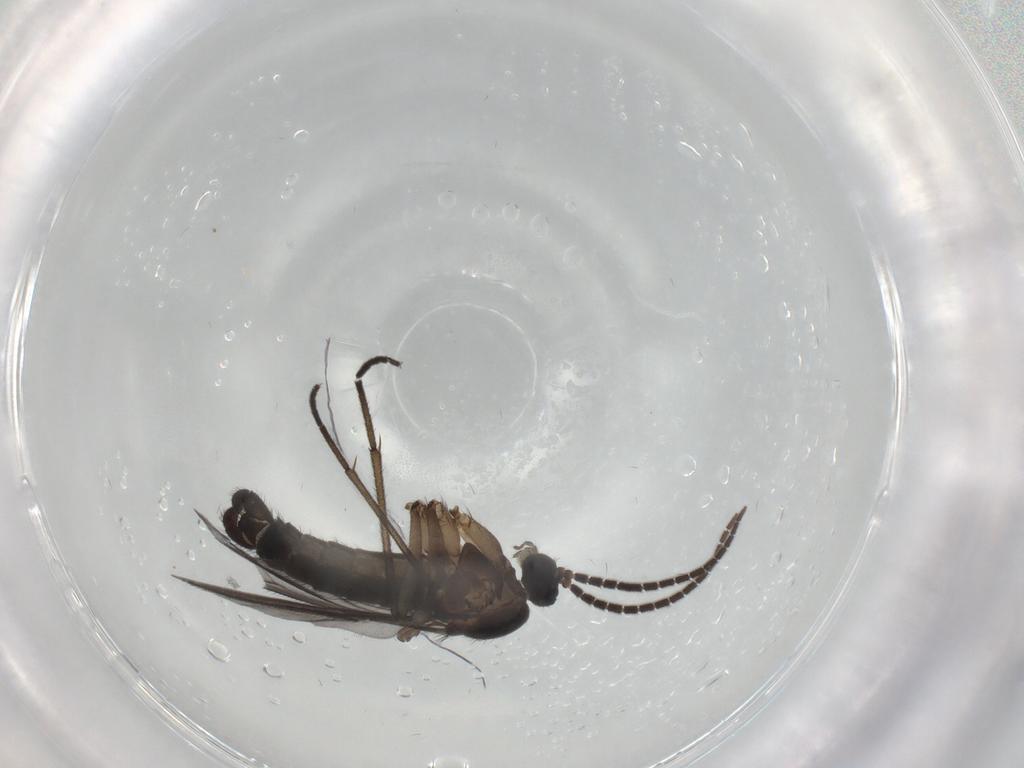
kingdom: Animalia
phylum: Arthropoda
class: Insecta
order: Diptera
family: Sciaridae
